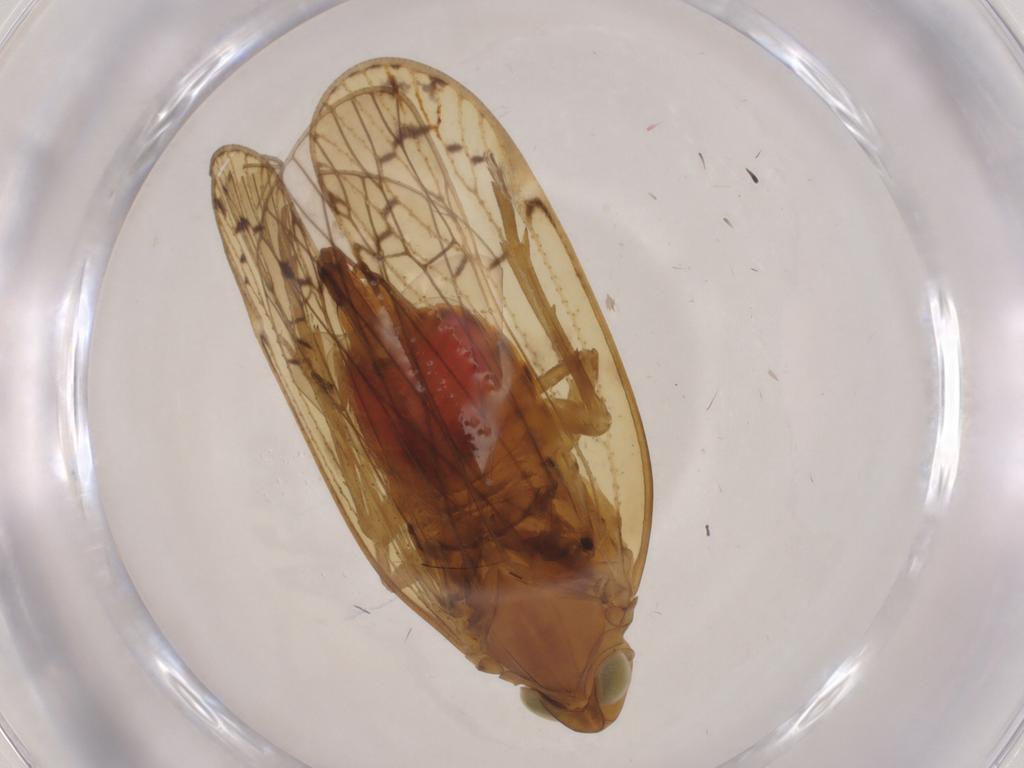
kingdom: Animalia
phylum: Arthropoda
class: Insecta
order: Hemiptera
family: Cixiidae
